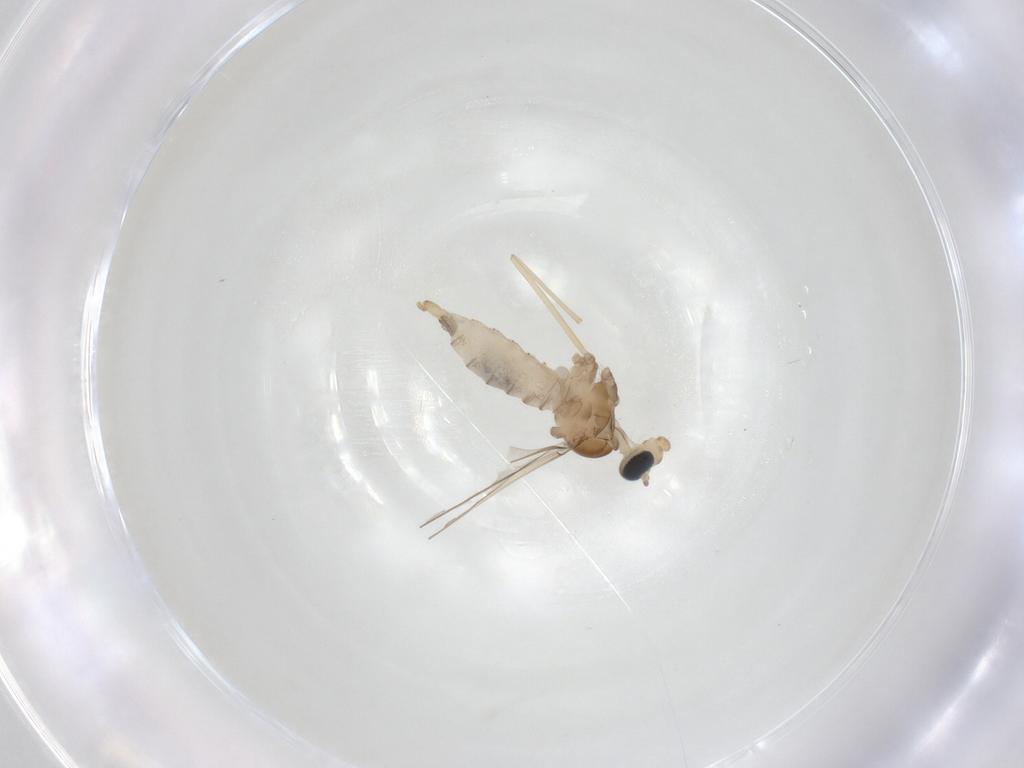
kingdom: Animalia
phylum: Arthropoda
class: Insecta
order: Diptera
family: Cecidomyiidae
